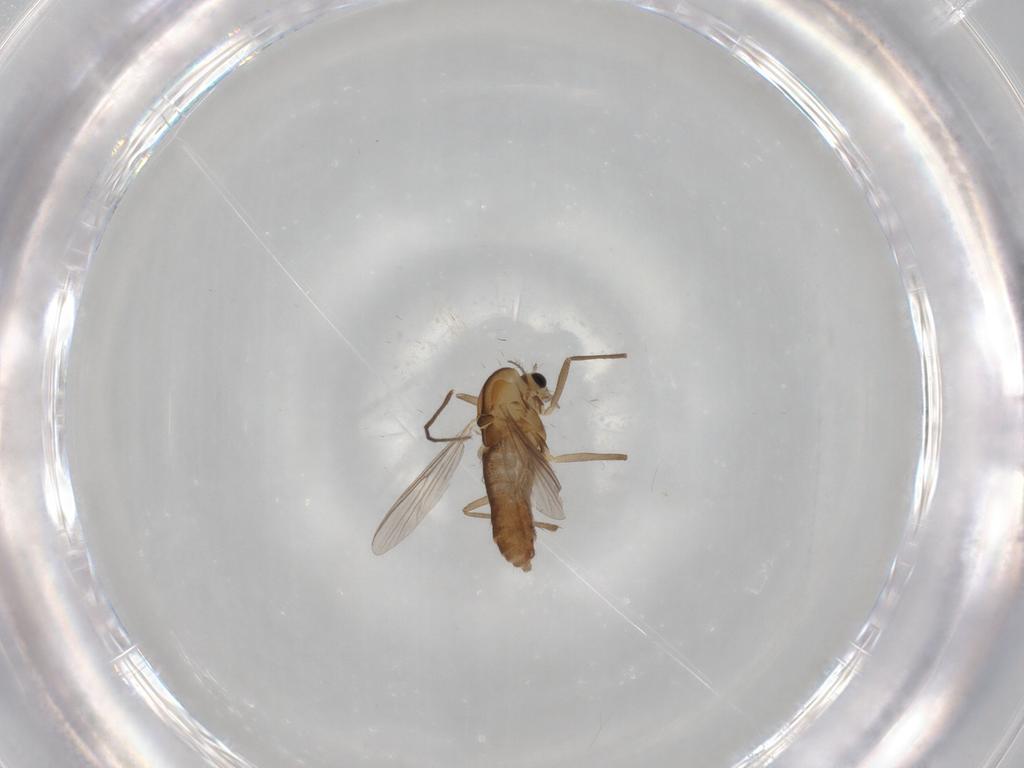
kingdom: Animalia
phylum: Arthropoda
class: Insecta
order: Diptera
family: Chironomidae
